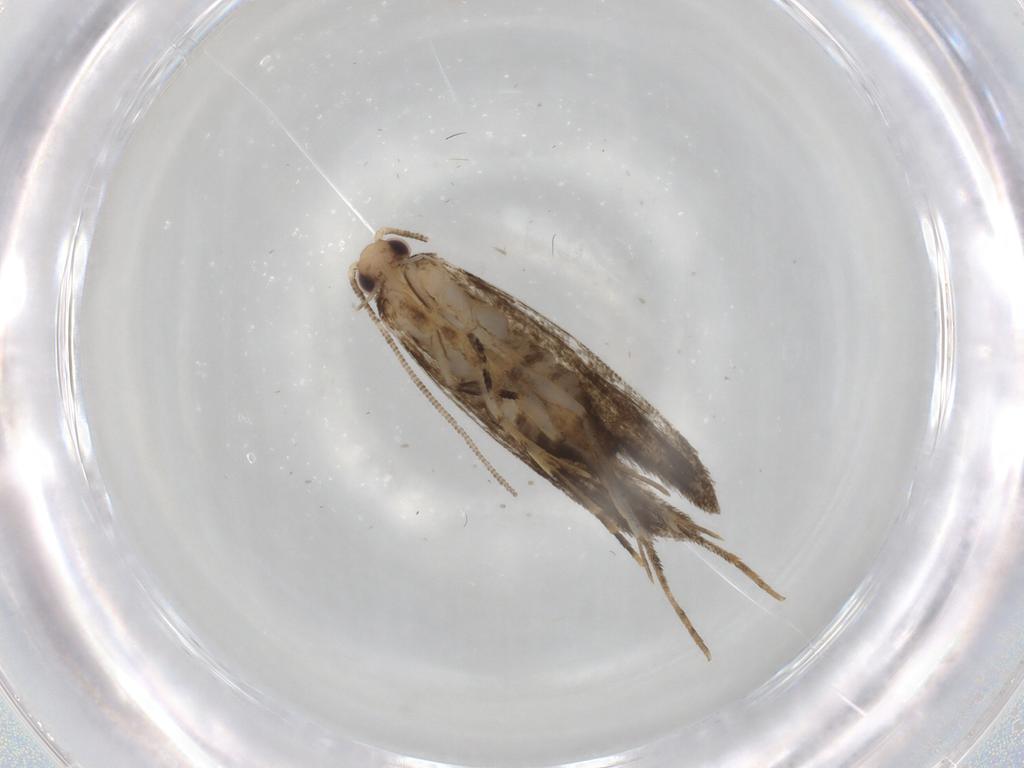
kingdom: Animalia
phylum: Arthropoda
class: Insecta
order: Lepidoptera
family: Meessiidae
